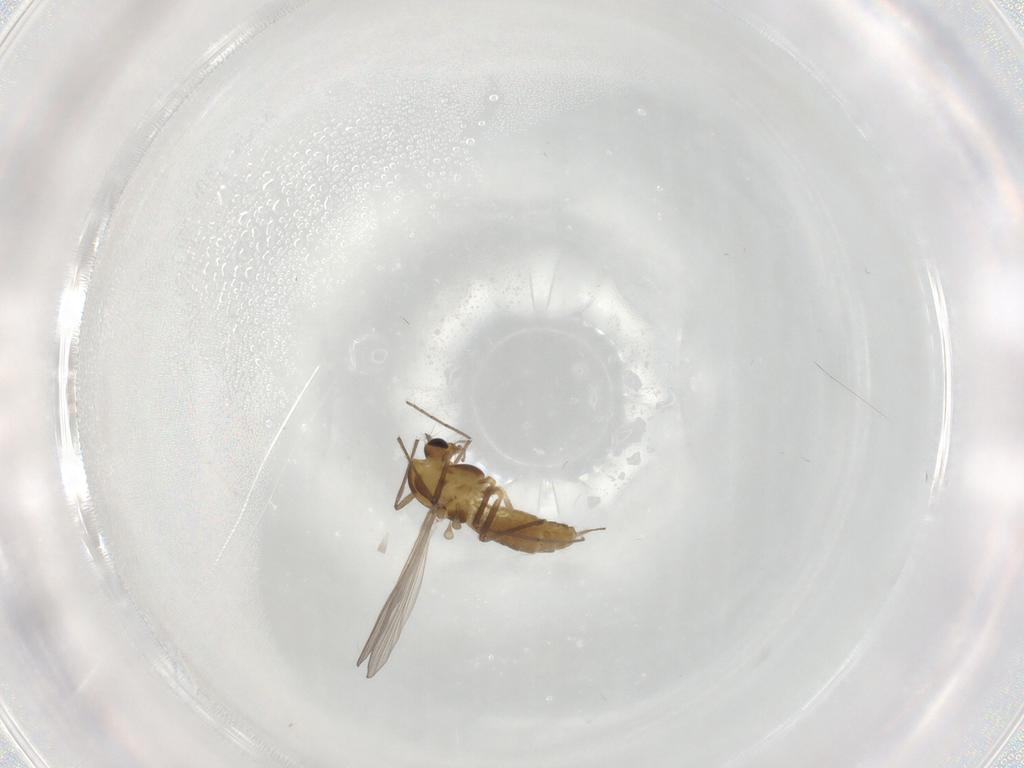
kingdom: Animalia
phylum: Arthropoda
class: Insecta
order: Diptera
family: Chironomidae
